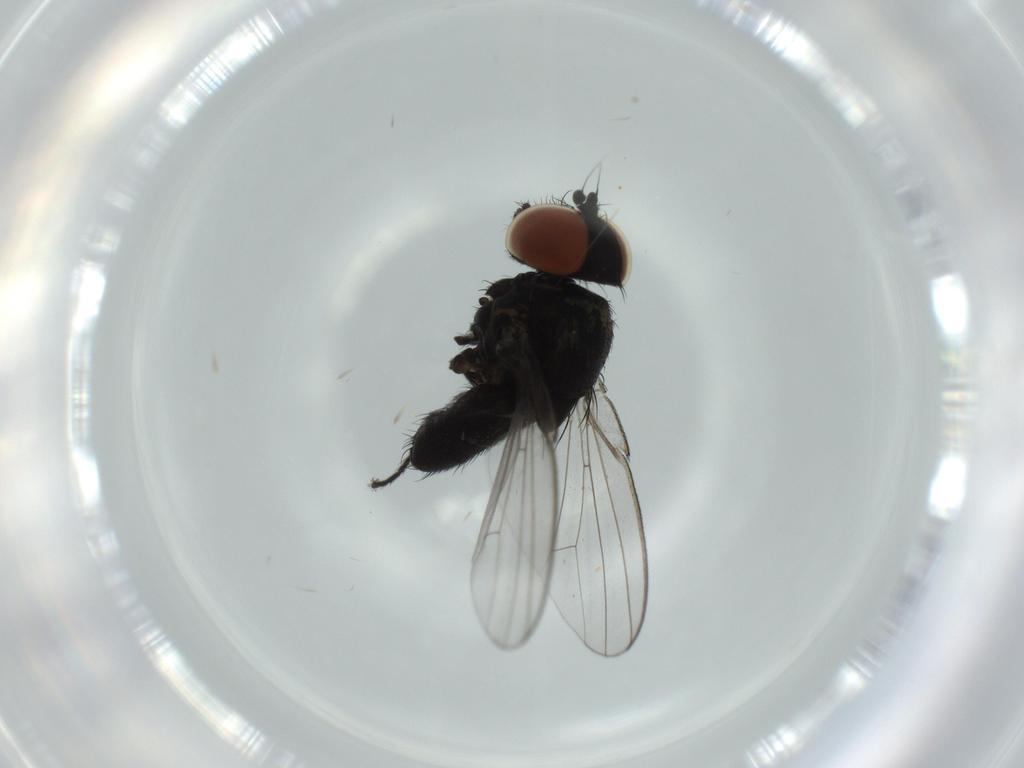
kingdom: Animalia
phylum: Arthropoda
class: Insecta
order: Diptera
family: Milichiidae
